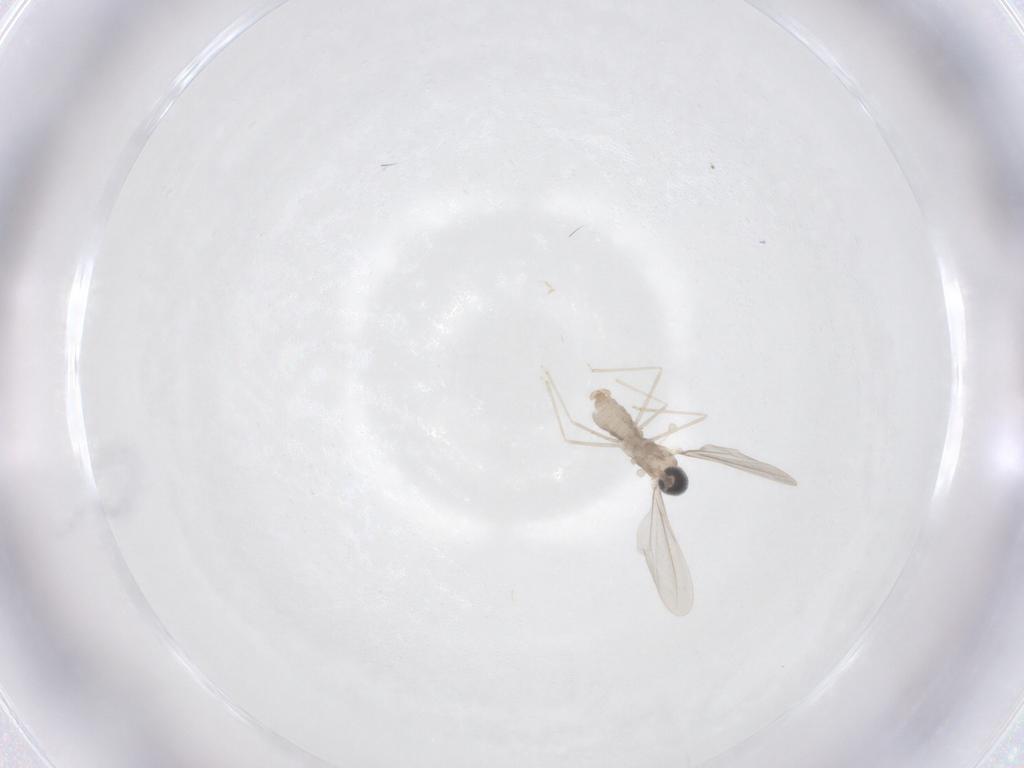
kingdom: Animalia
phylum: Arthropoda
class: Insecta
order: Diptera
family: Cecidomyiidae
